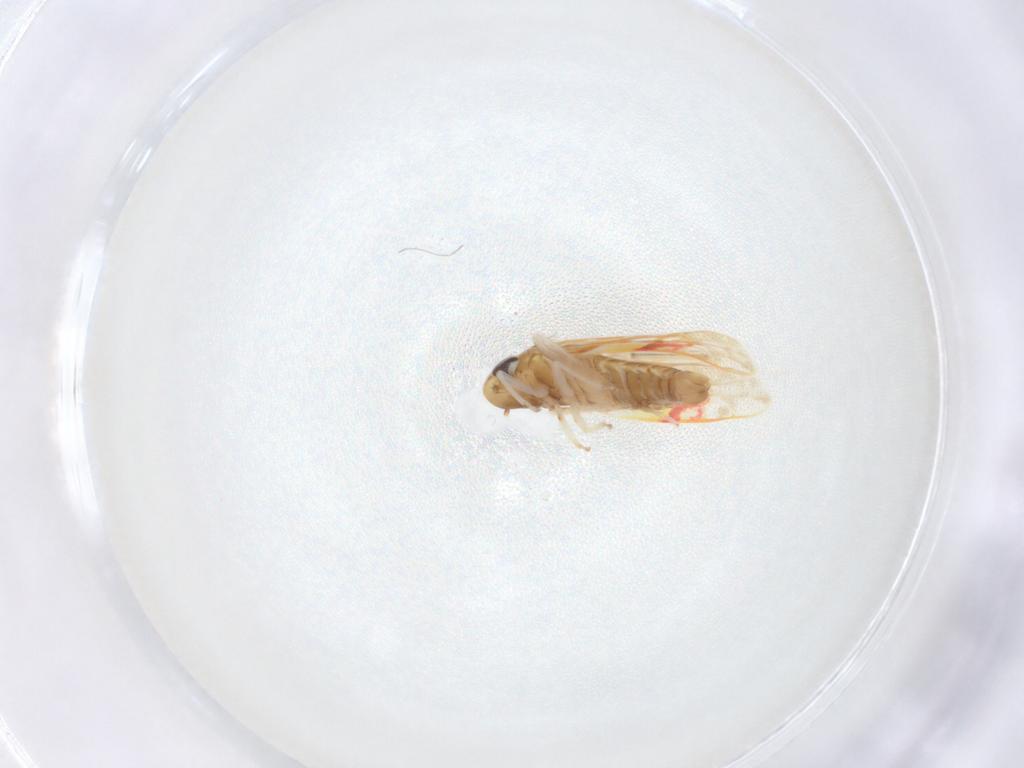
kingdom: Animalia
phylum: Arthropoda
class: Insecta
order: Hemiptera
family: Cicadellidae
